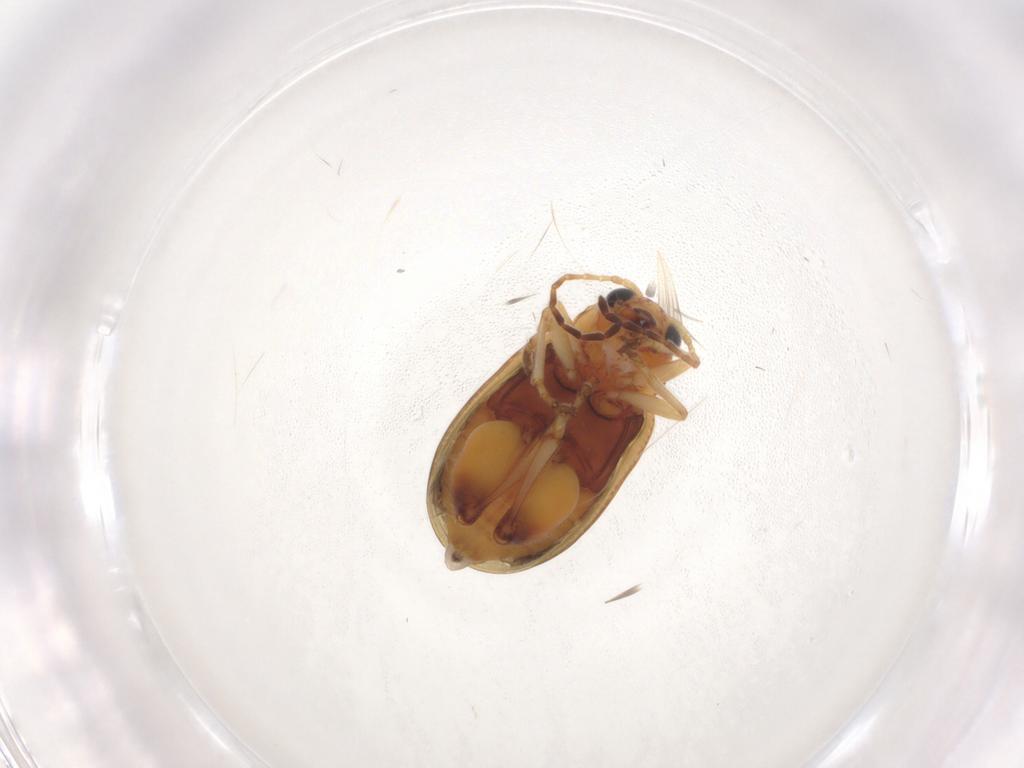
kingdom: Animalia
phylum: Arthropoda
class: Insecta
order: Coleoptera
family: Chrysomelidae
